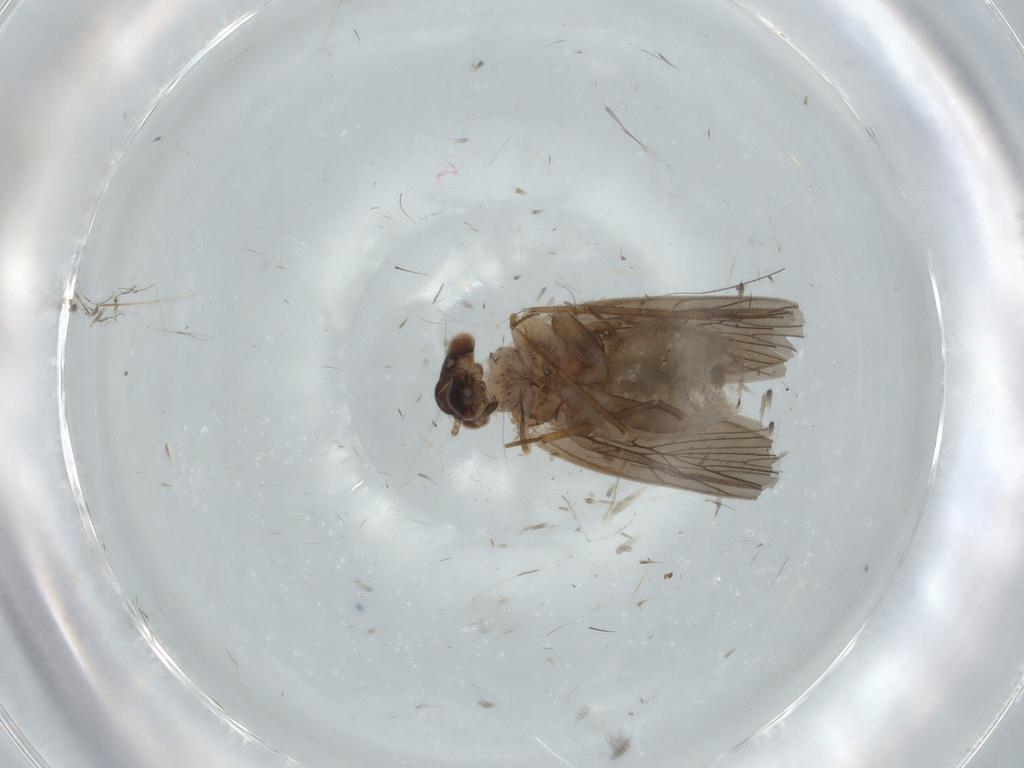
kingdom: Animalia
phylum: Arthropoda
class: Insecta
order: Psocodea
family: Lepidopsocidae
